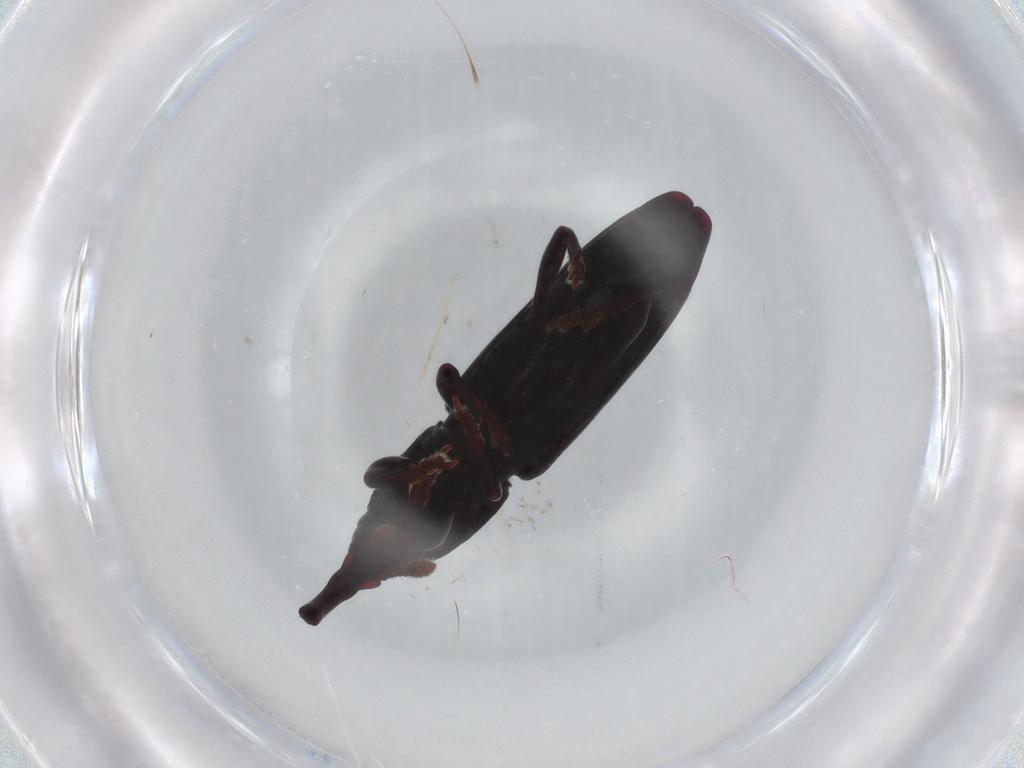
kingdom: Animalia
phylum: Arthropoda
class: Insecta
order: Coleoptera
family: Curculionidae
